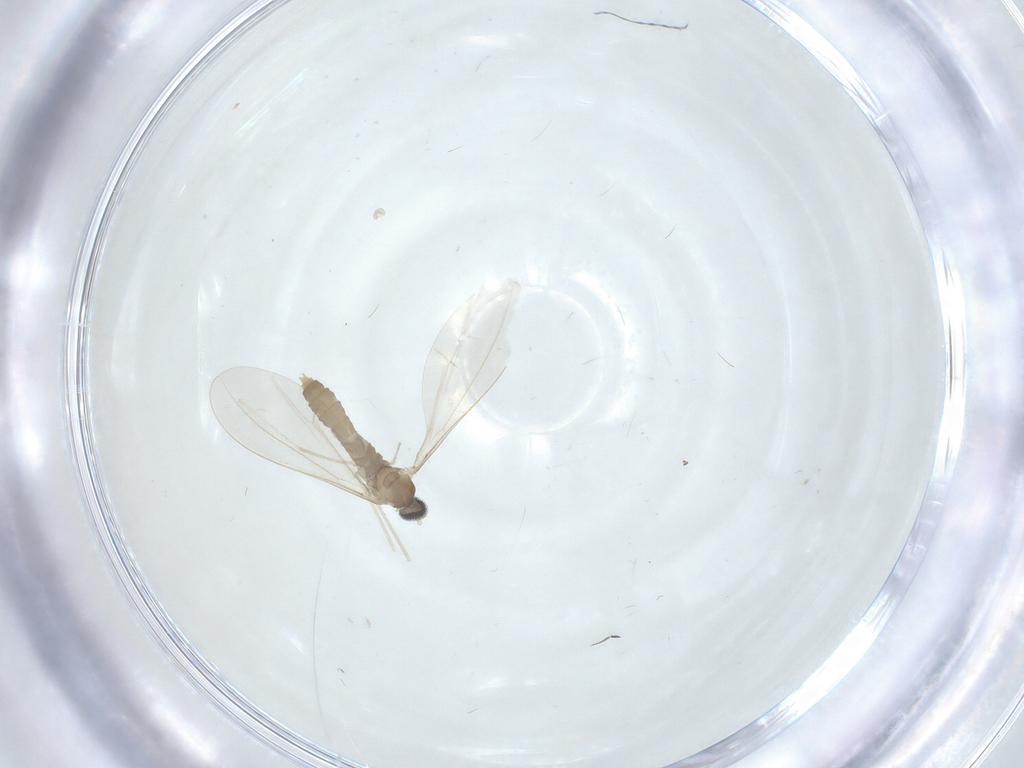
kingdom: Animalia
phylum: Arthropoda
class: Insecta
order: Diptera
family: Cecidomyiidae
